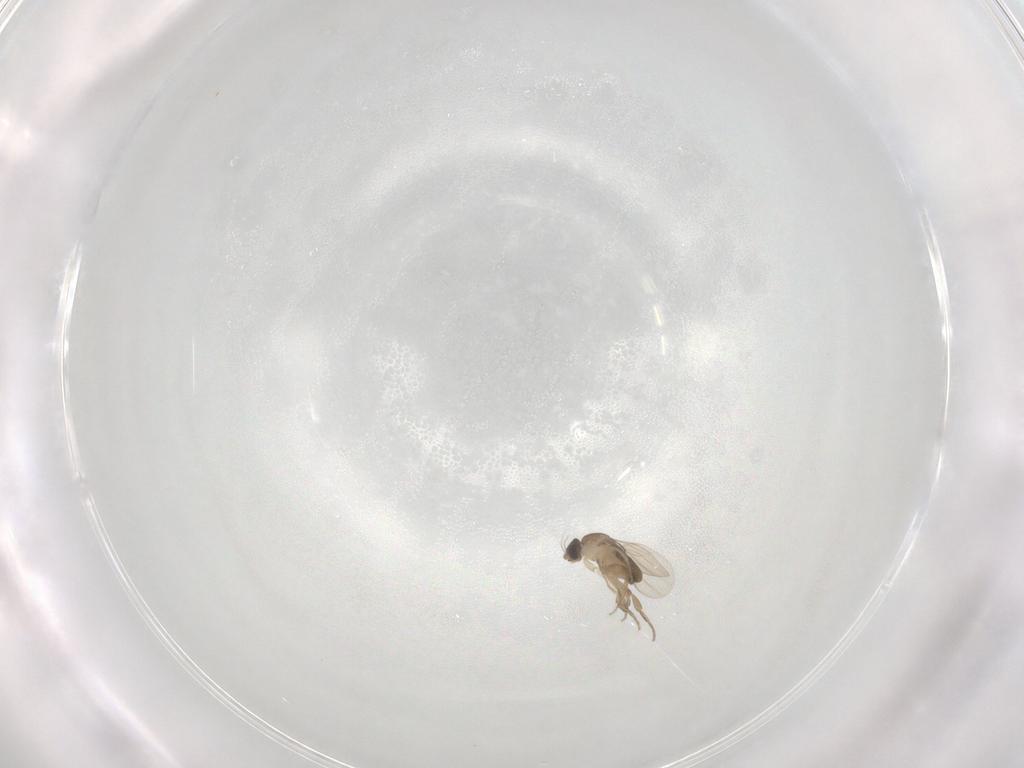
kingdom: Animalia
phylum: Arthropoda
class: Insecta
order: Diptera
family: Phoridae
